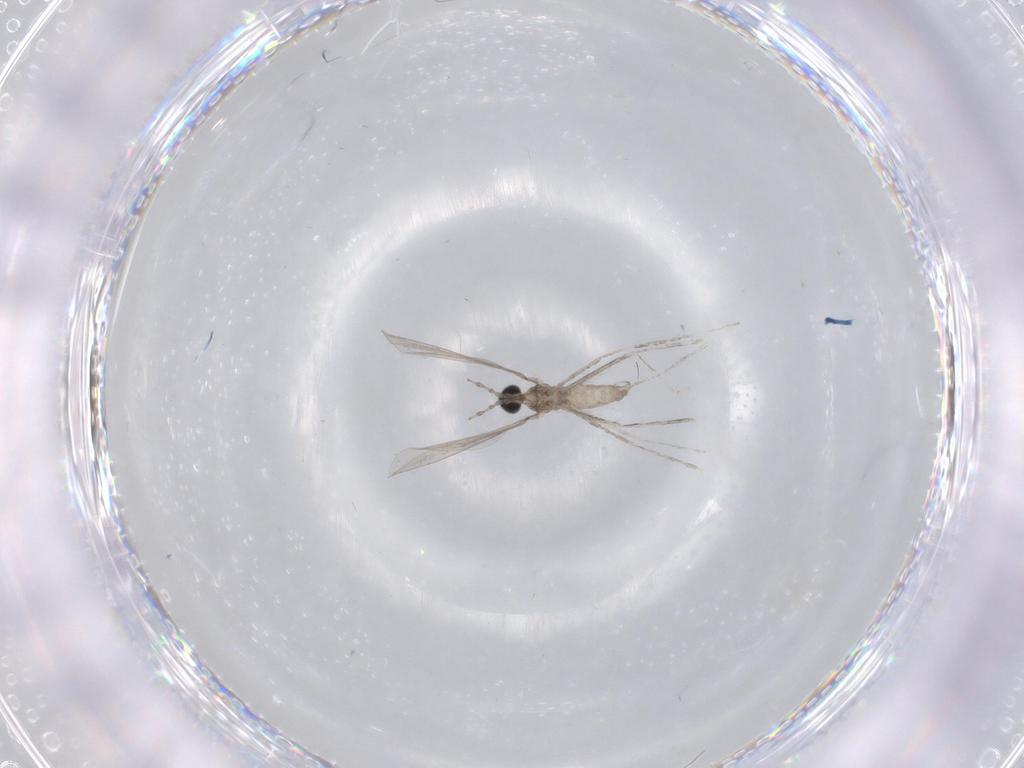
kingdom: Animalia
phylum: Arthropoda
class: Insecta
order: Diptera
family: Cecidomyiidae
